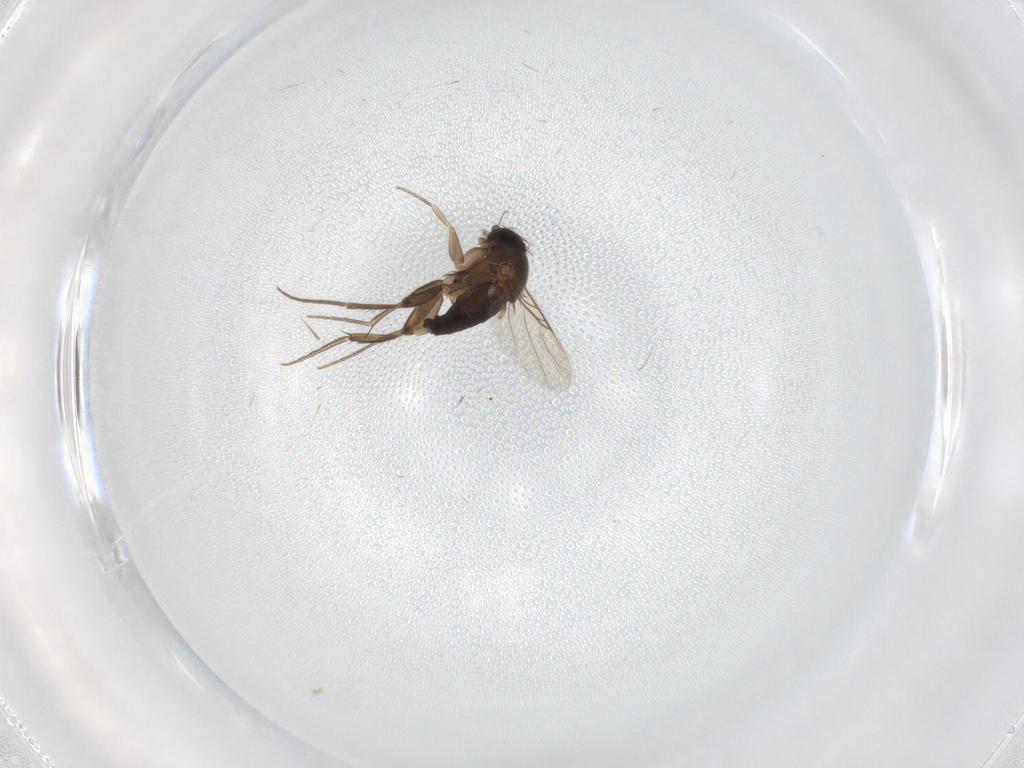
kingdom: Animalia
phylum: Arthropoda
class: Insecta
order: Diptera
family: Phoridae
